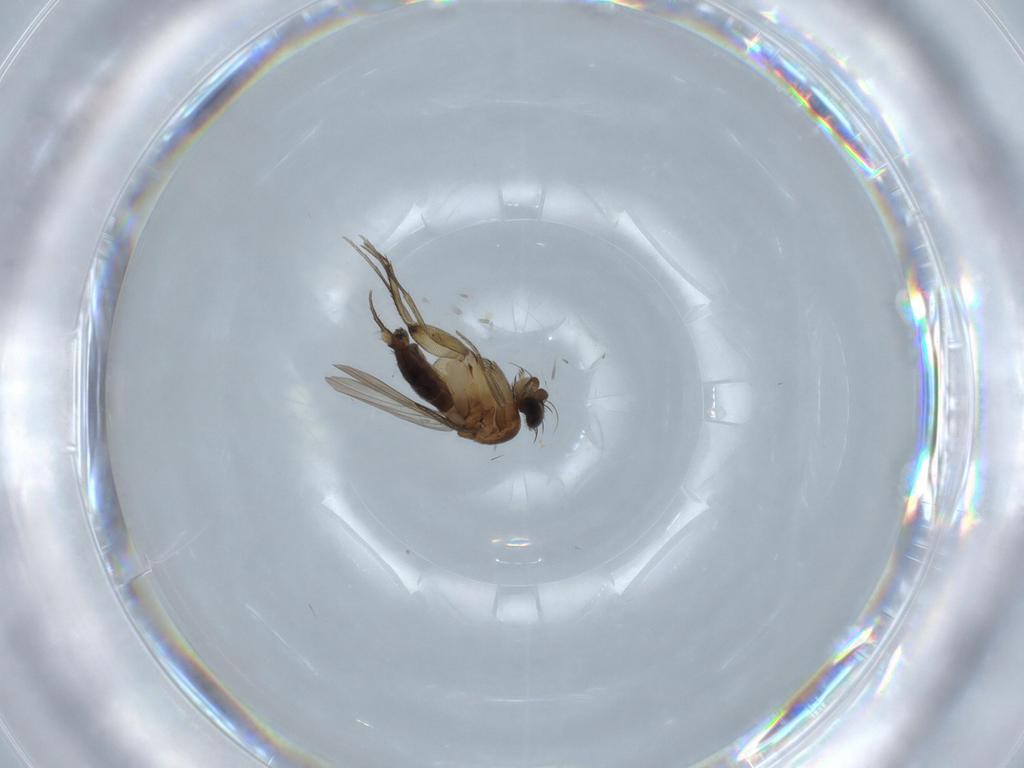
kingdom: Animalia
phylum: Arthropoda
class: Insecta
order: Diptera
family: Phoridae
